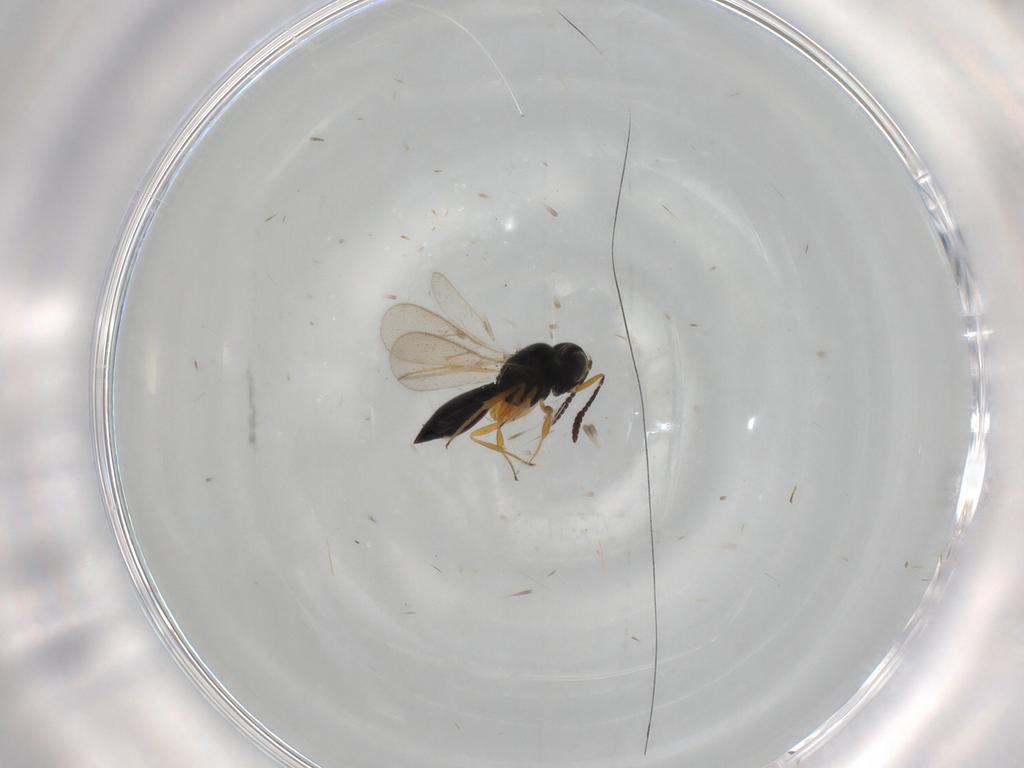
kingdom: Animalia
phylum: Arthropoda
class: Insecta
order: Hymenoptera
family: Scelionidae
